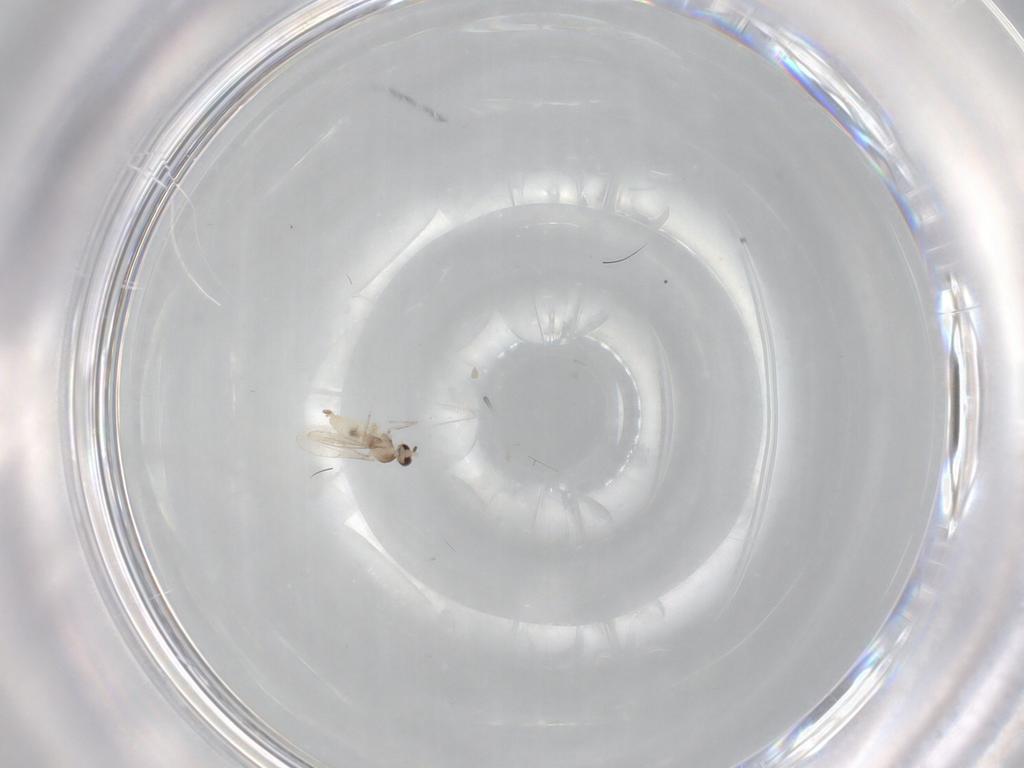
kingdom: Animalia
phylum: Arthropoda
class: Insecta
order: Diptera
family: Cecidomyiidae
